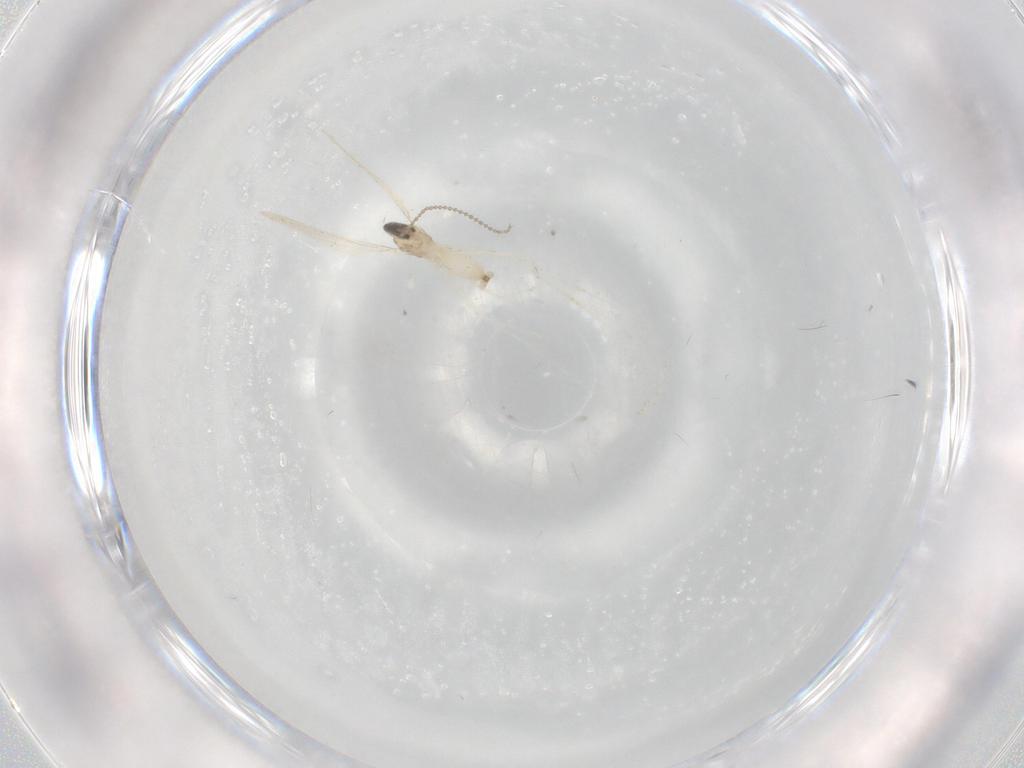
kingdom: Animalia
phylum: Arthropoda
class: Insecta
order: Diptera
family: Cecidomyiidae
